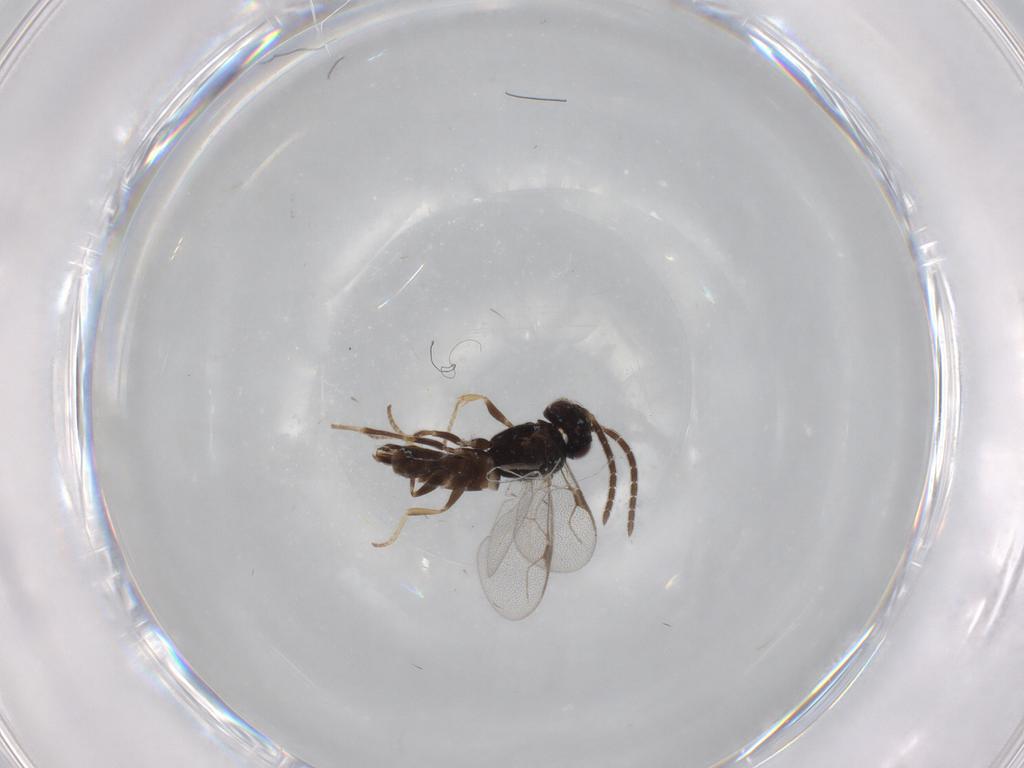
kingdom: Animalia
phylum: Arthropoda
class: Insecta
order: Hymenoptera
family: Dryinidae
